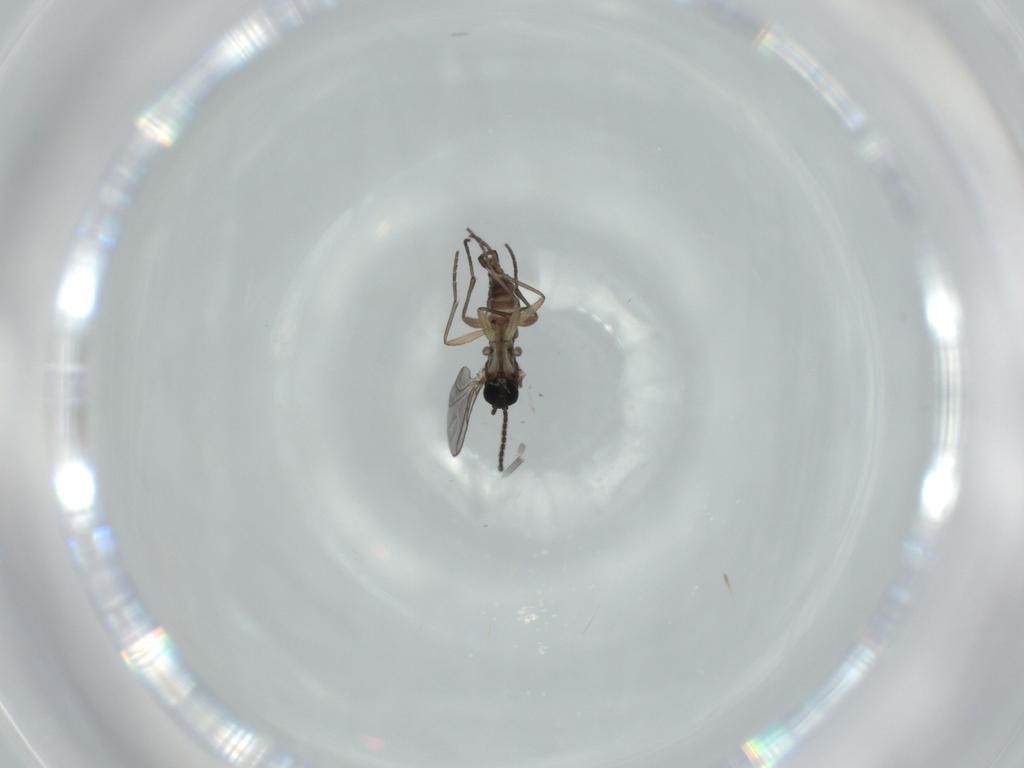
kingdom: Animalia
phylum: Arthropoda
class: Insecta
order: Diptera
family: Sciaridae
